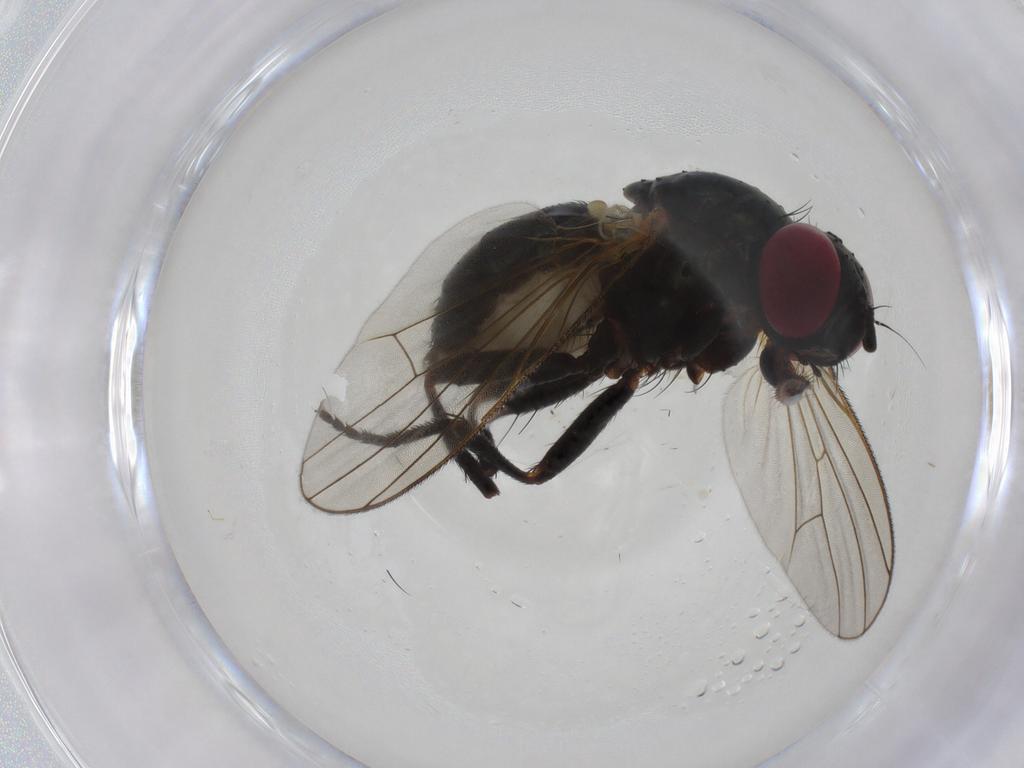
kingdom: Animalia
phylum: Arthropoda
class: Insecta
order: Diptera
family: Fannia
